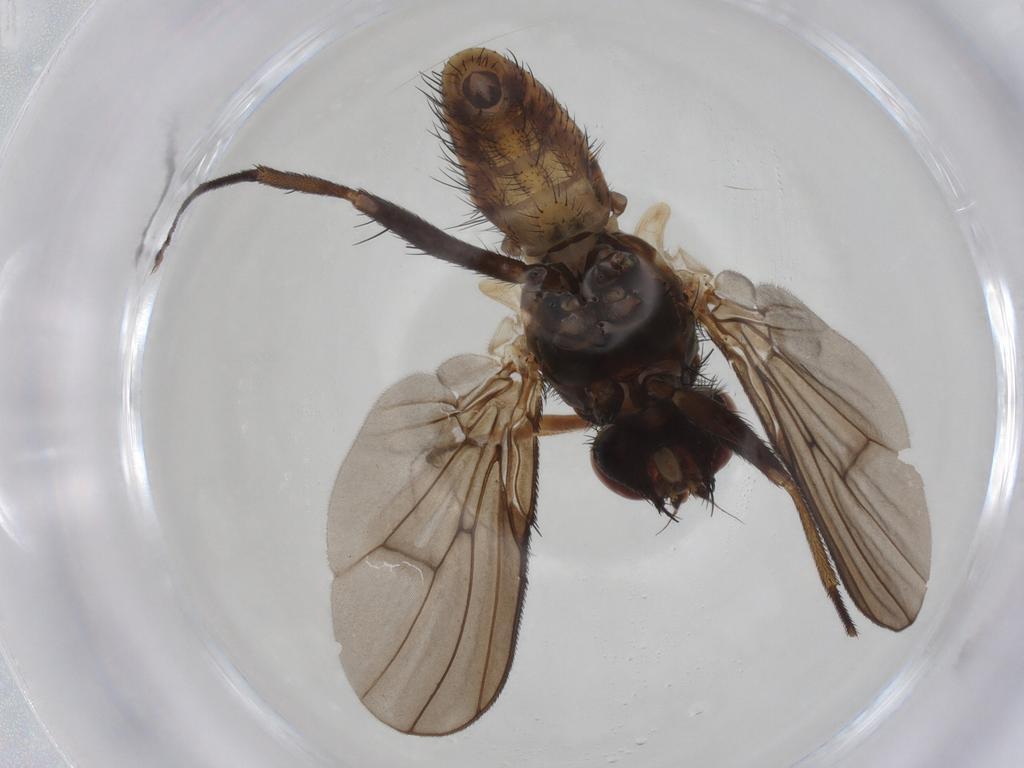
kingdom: Animalia
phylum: Arthropoda
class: Insecta
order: Diptera
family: Muscidae
